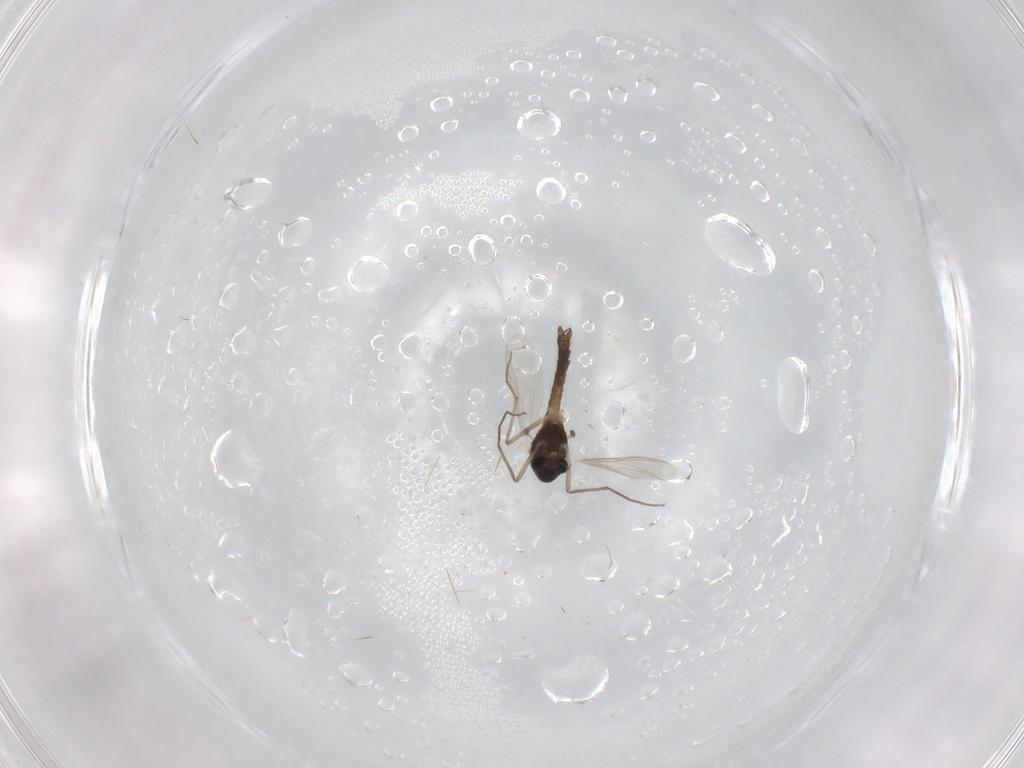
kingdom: Animalia
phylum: Arthropoda
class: Insecta
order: Diptera
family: Chironomidae
